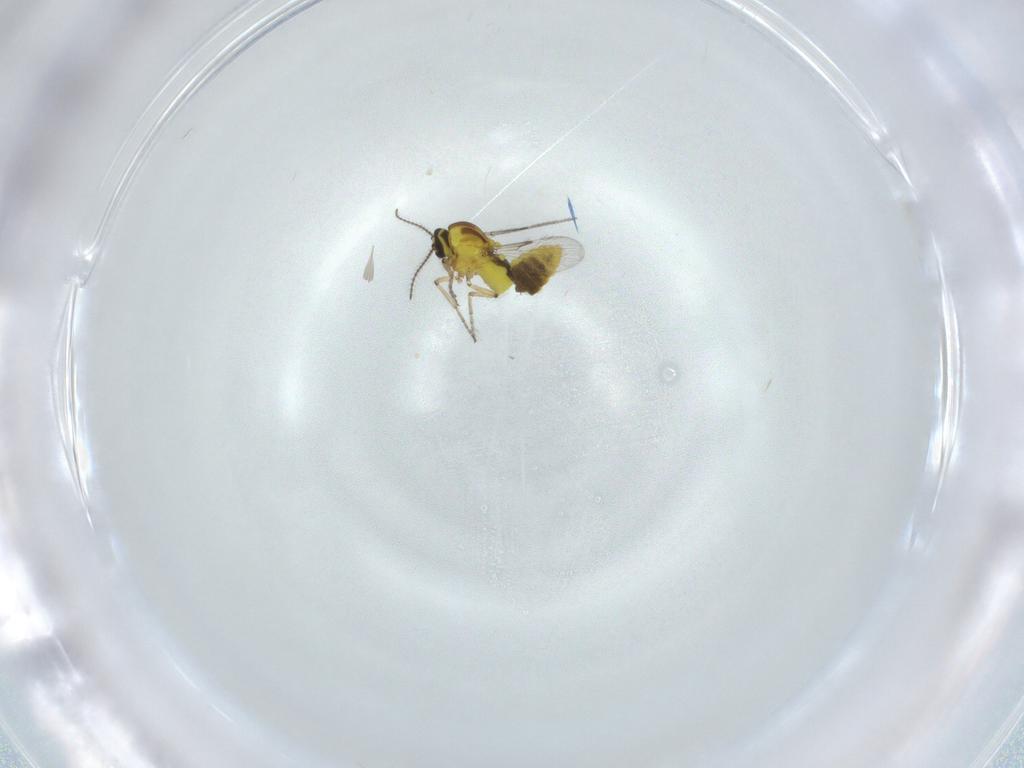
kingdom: Animalia
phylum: Arthropoda
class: Insecta
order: Diptera
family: Ceratopogonidae
